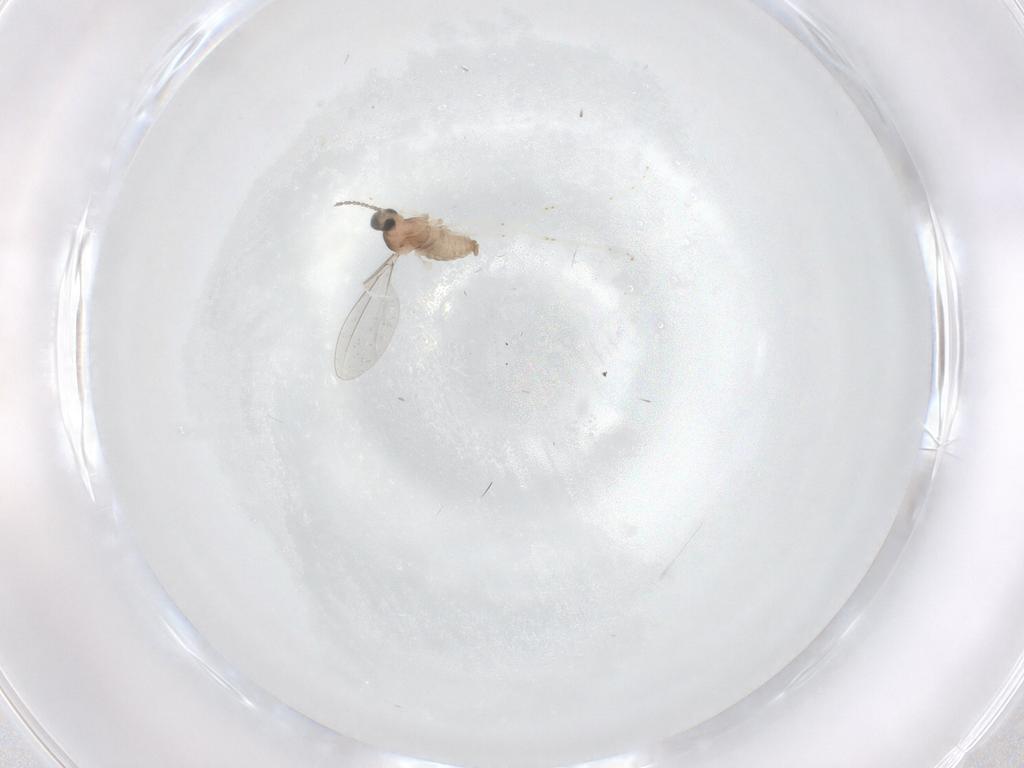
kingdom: Animalia
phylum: Arthropoda
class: Insecta
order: Diptera
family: Cecidomyiidae
